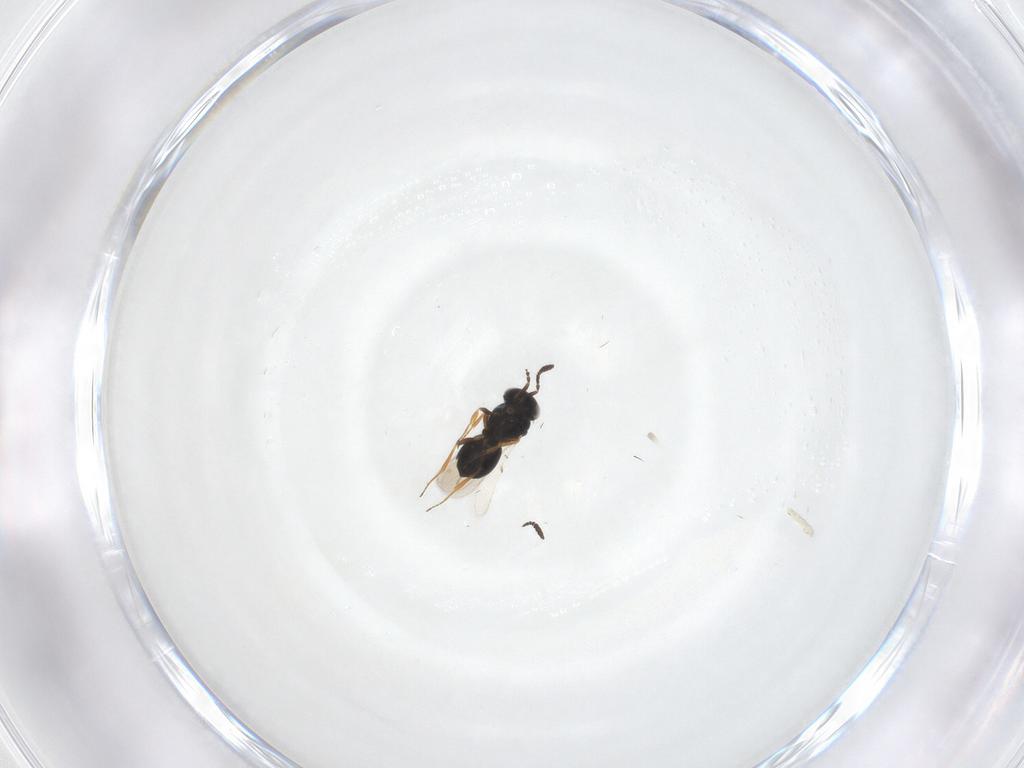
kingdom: Animalia
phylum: Arthropoda
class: Insecta
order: Hymenoptera
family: Scelionidae
